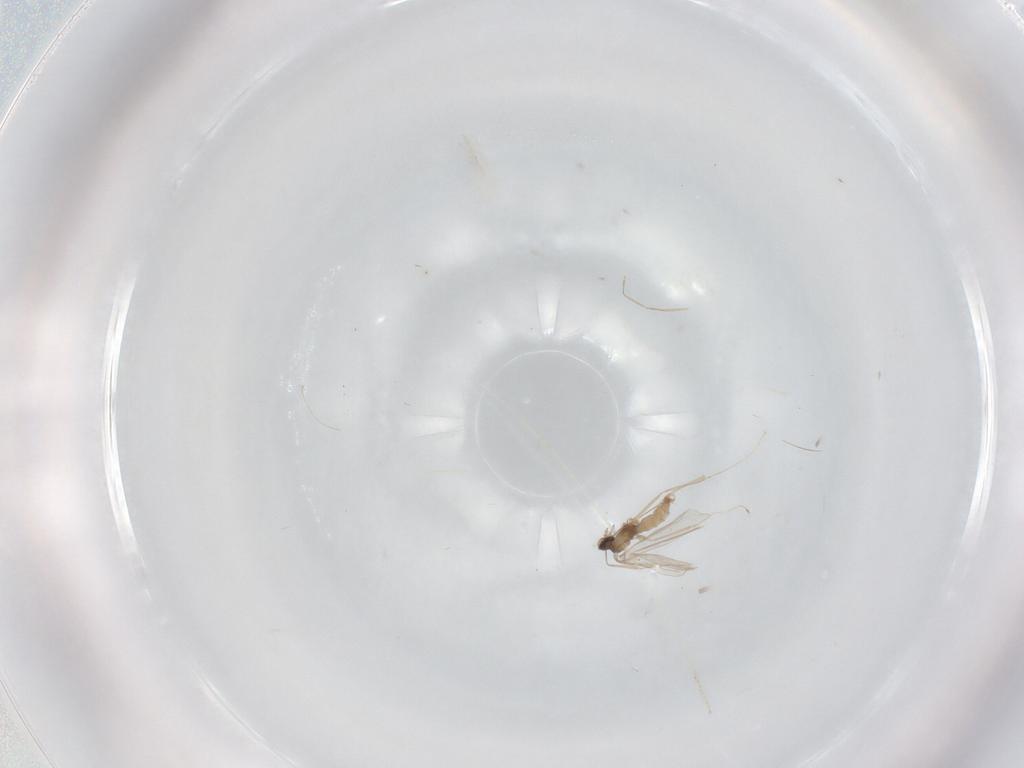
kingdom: Animalia
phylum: Arthropoda
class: Insecta
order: Diptera
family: Cecidomyiidae
